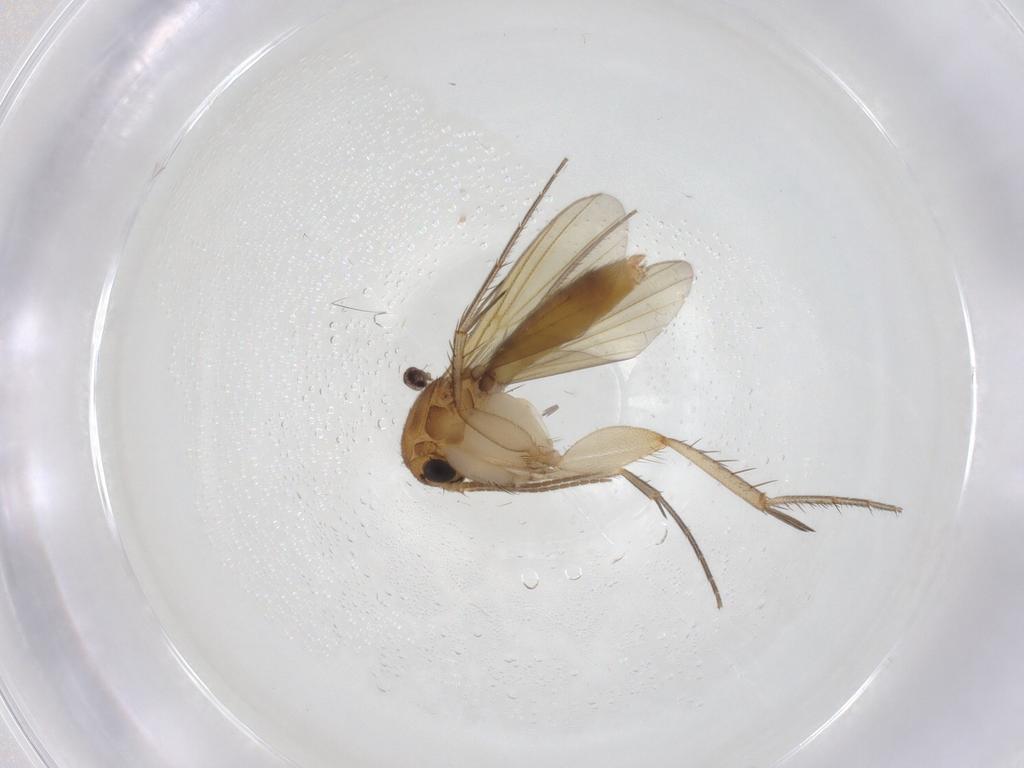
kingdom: Animalia
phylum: Arthropoda
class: Insecta
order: Diptera
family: Mycetophilidae
